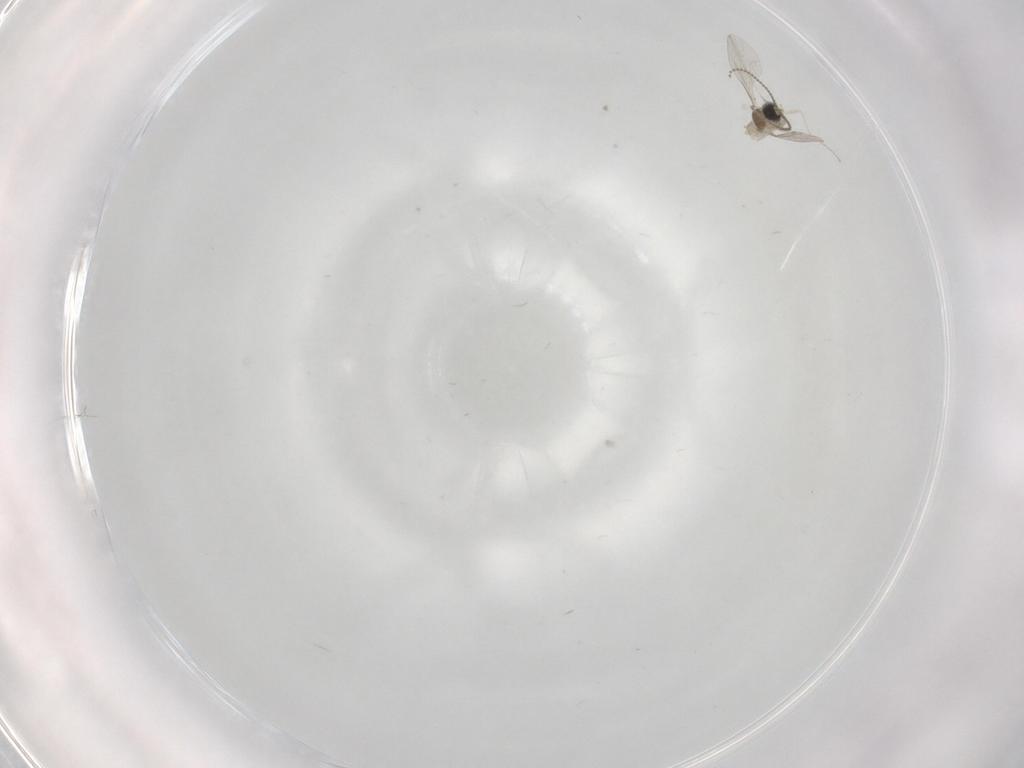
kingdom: Animalia
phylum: Arthropoda
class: Insecta
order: Diptera
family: Cecidomyiidae
